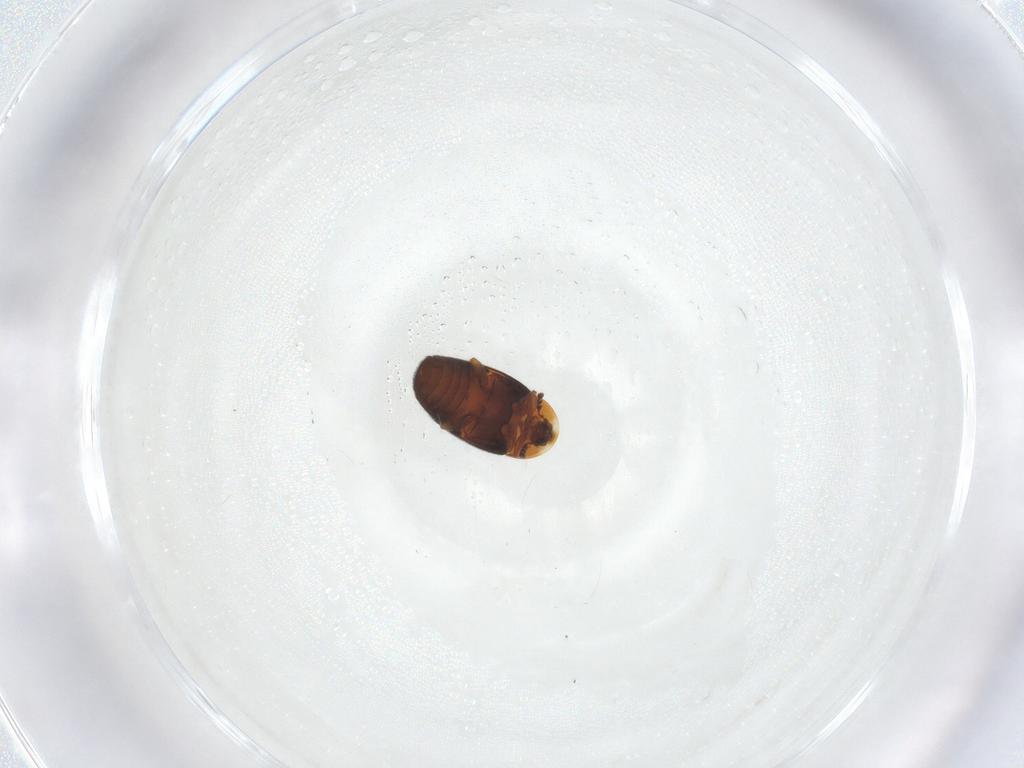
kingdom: Animalia
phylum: Arthropoda
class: Insecta
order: Coleoptera
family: Corylophidae
